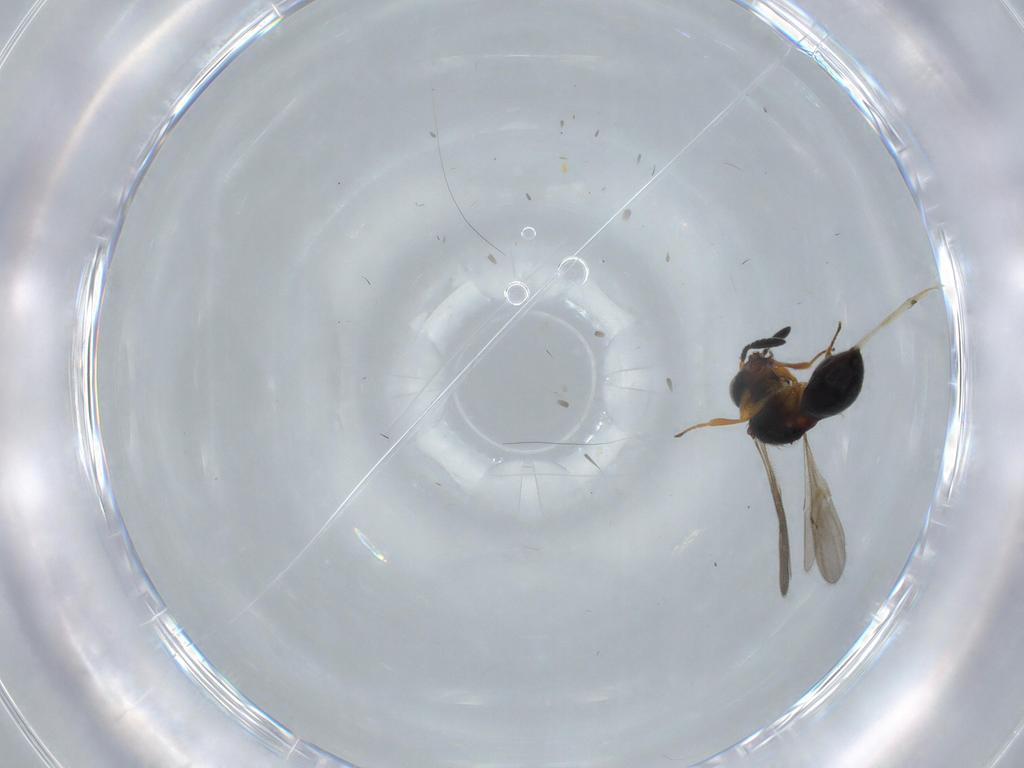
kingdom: Animalia
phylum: Arthropoda
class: Insecta
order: Hymenoptera
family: Scelionidae
